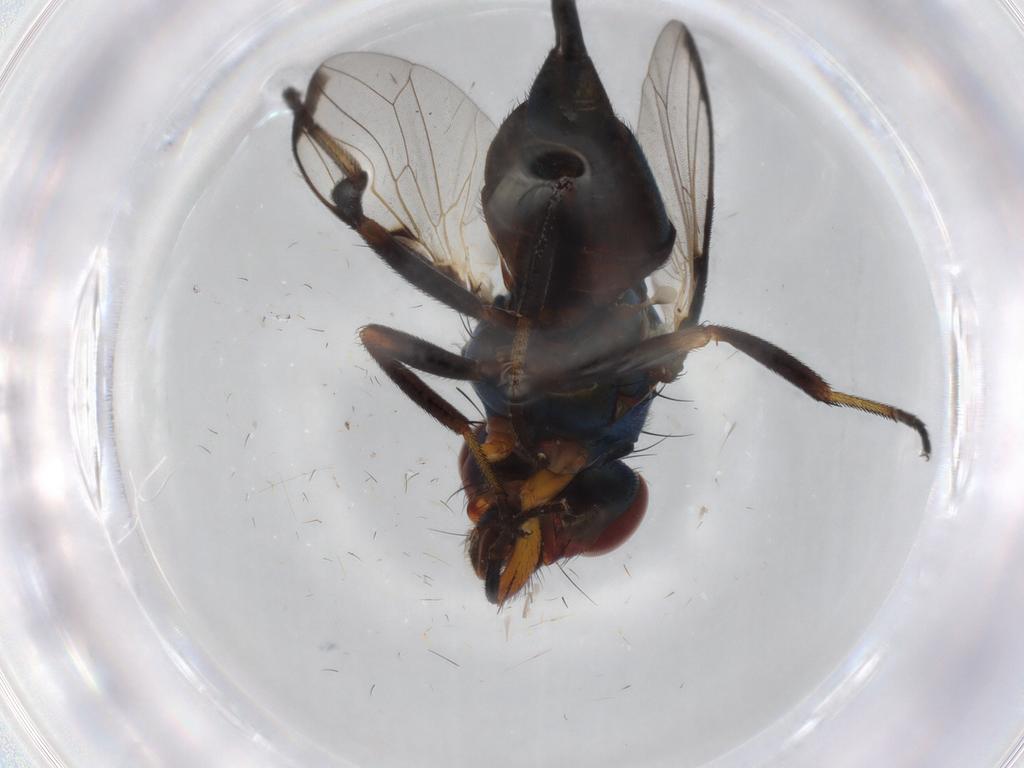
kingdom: Animalia
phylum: Arthropoda
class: Insecta
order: Diptera
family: Ulidiidae
